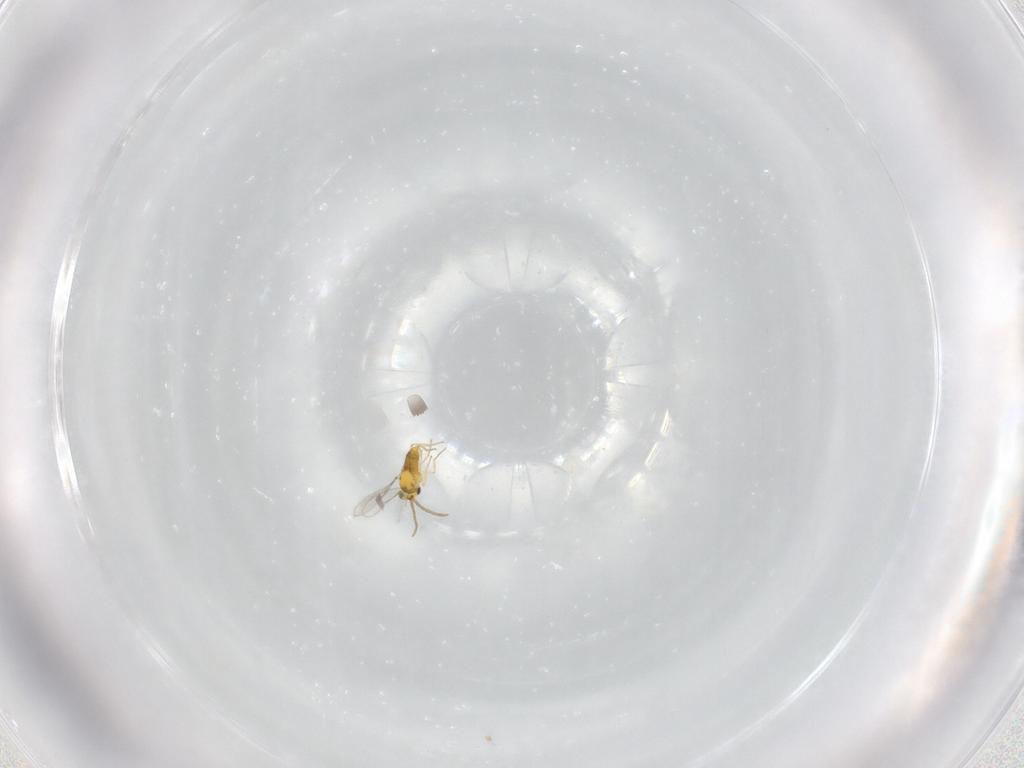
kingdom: Animalia
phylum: Arthropoda
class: Insecta
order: Hymenoptera
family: Aphelinidae
